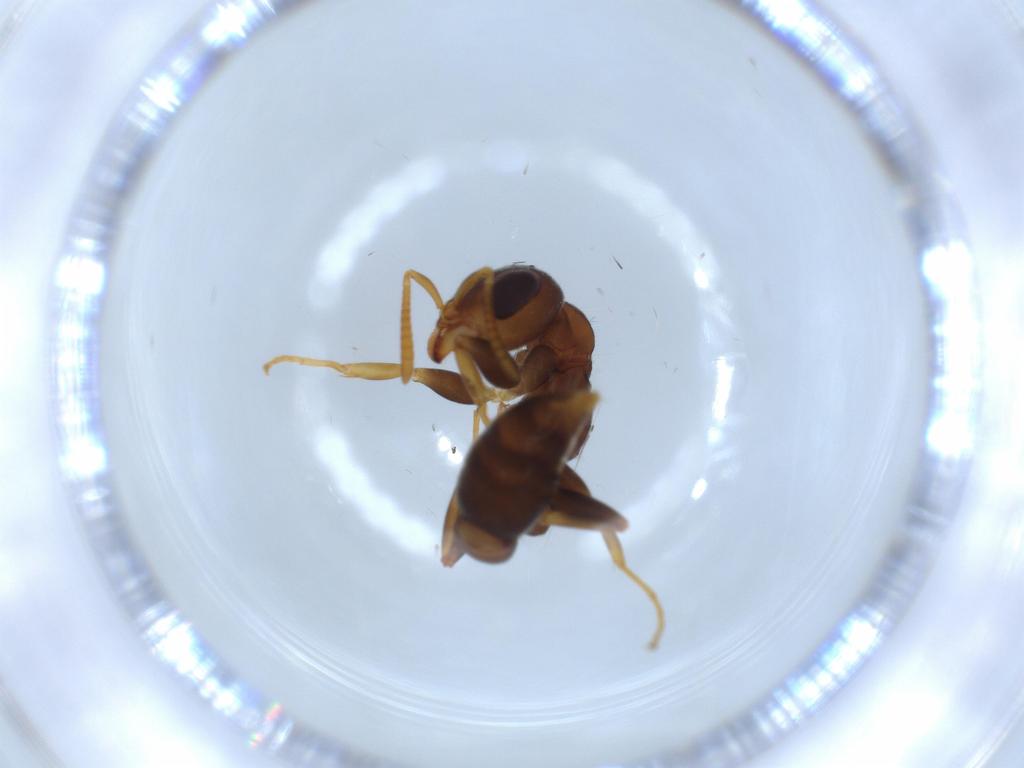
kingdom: Animalia
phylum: Arthropoda
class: Insecta
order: Hymenoptera
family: Formicidae
